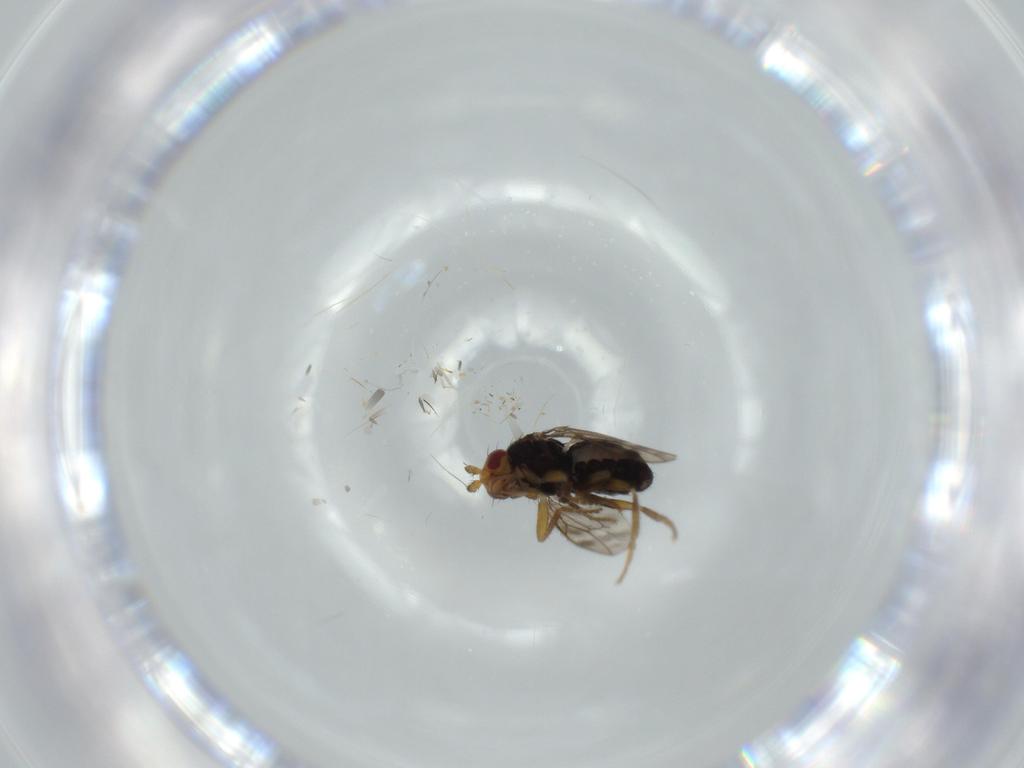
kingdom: Animalia
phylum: Arthropoda
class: Insecta
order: Diptera
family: Sphaeroceridae
